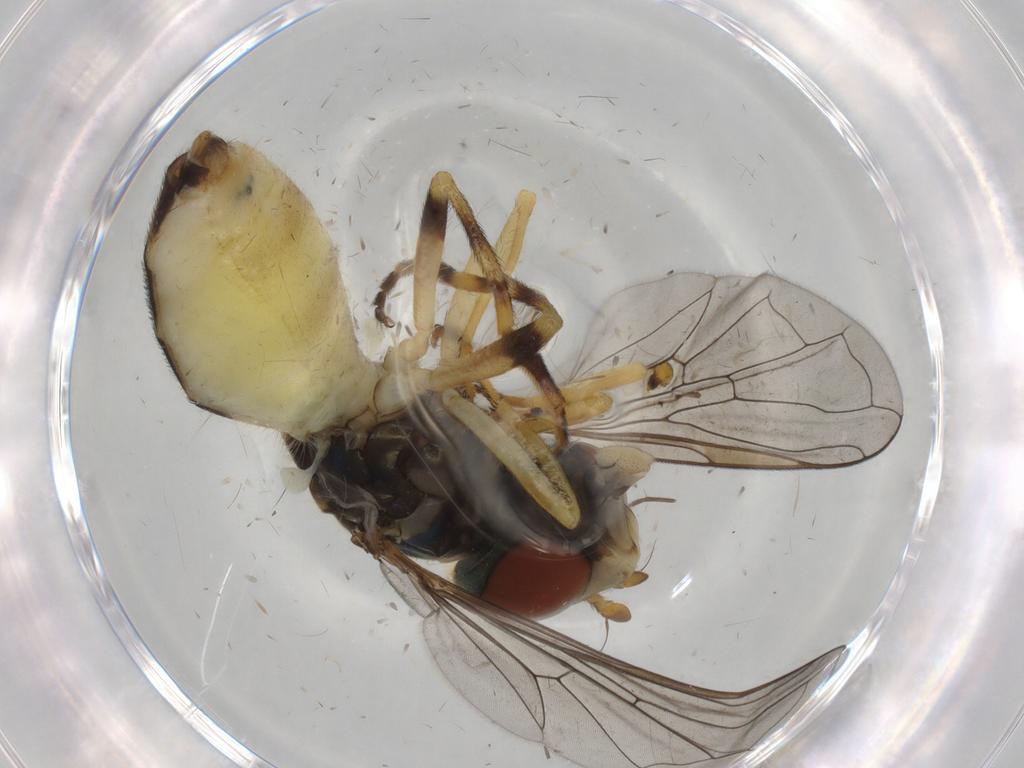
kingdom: Animalia
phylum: Arthropoda
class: Insecta
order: Diptera
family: Syrphidae
